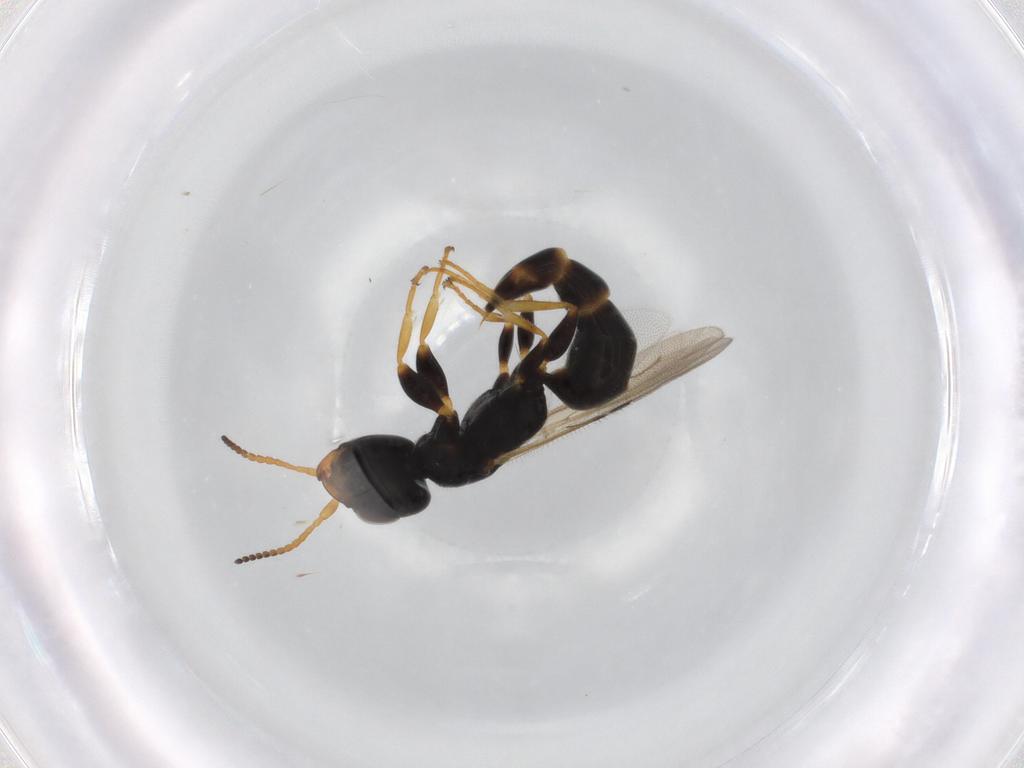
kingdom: Animalia
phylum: Arthropoda
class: Insecta
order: Hymenoptera
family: Bethylidae
